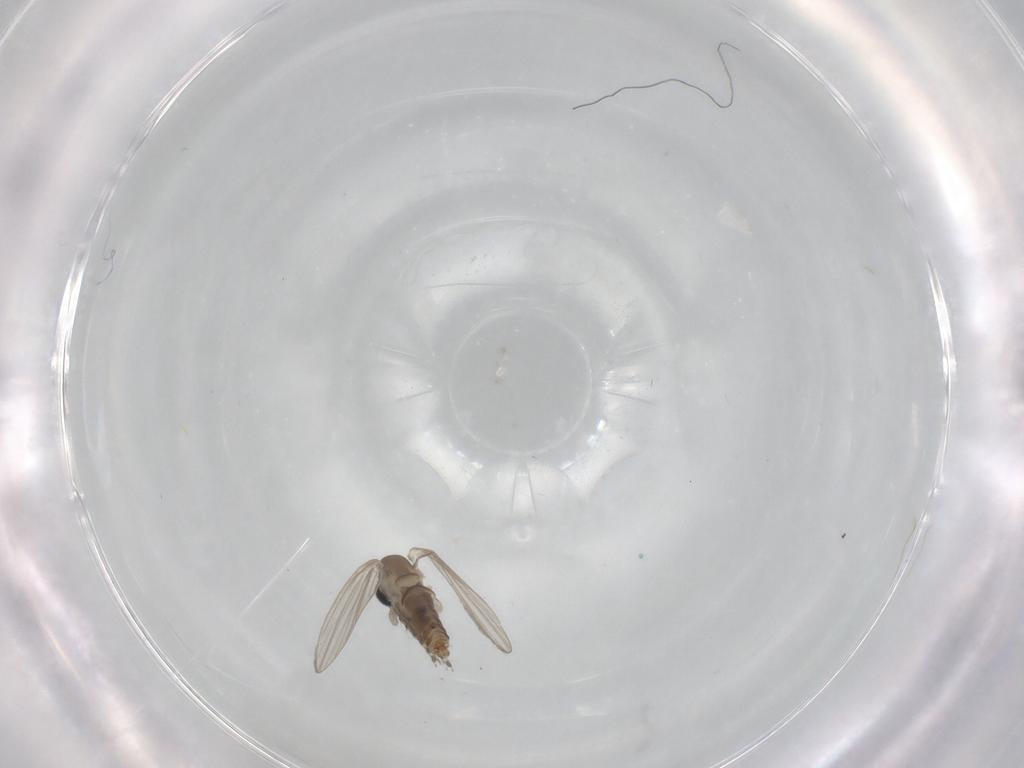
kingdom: Animalia
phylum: Arthropoda
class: Insecta
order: Diptera
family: Psychodidae
